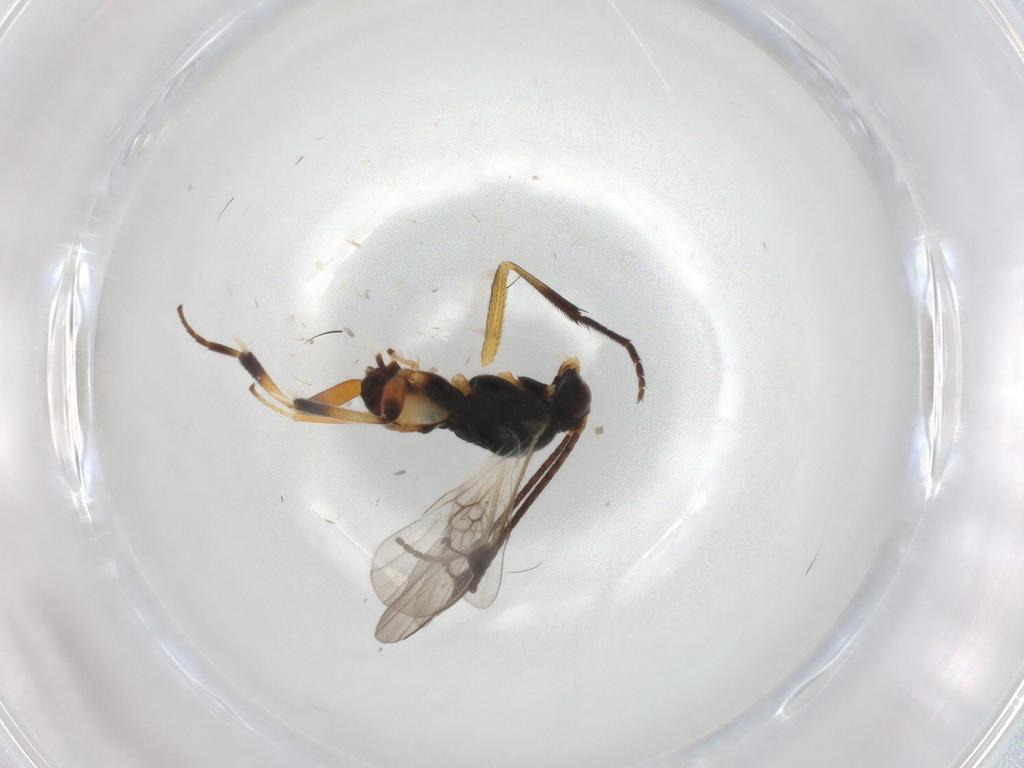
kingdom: Animalia
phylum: Arthropoda
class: Insecta
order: Hymenoptera
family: Braconidae
